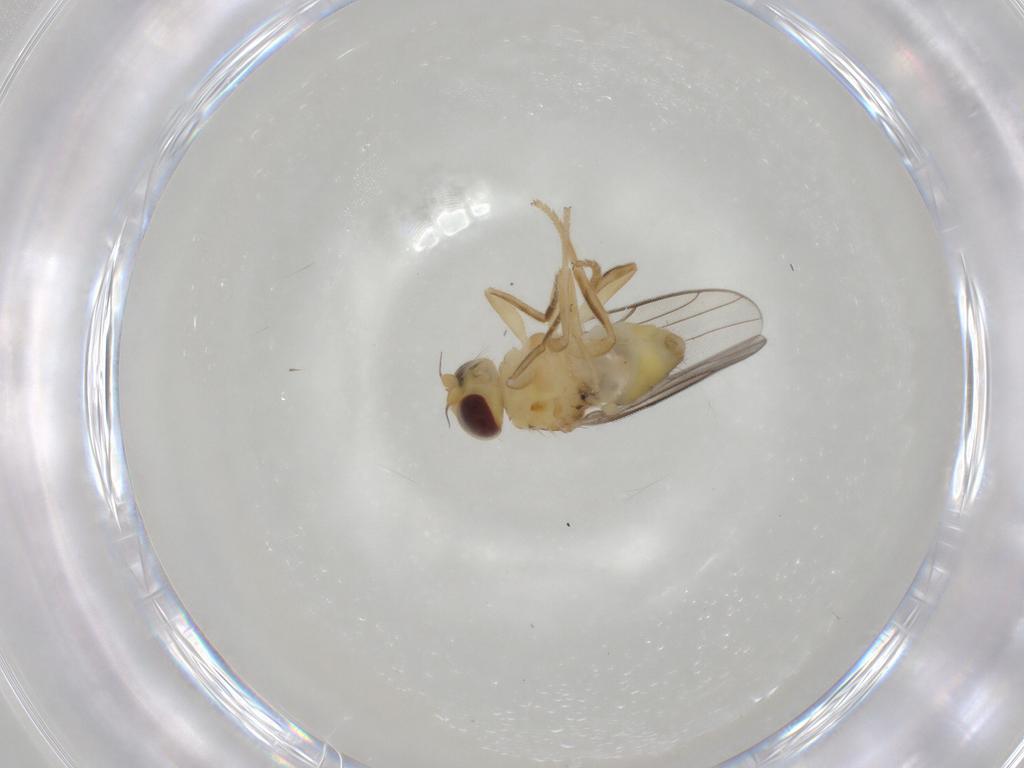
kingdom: Animalia
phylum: Arthropoda
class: Insecta
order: Diptera
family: Chloropidae
